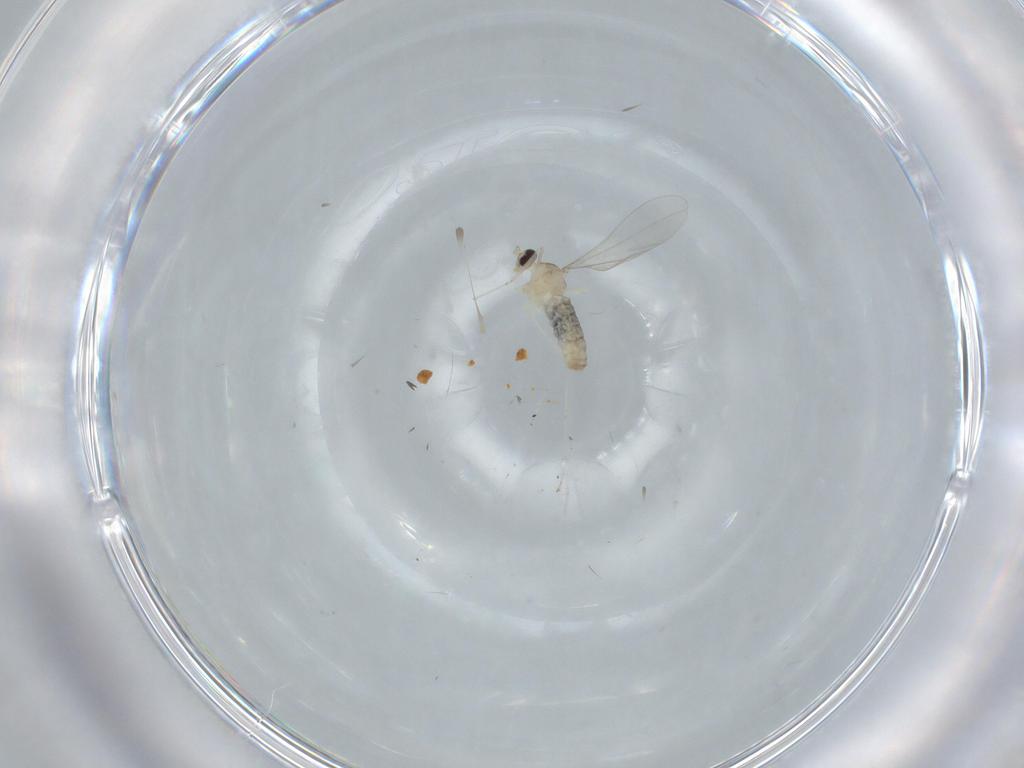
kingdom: Animalia
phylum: Arthropoda
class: Insecta
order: Diptera
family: Cecidomyiidae
